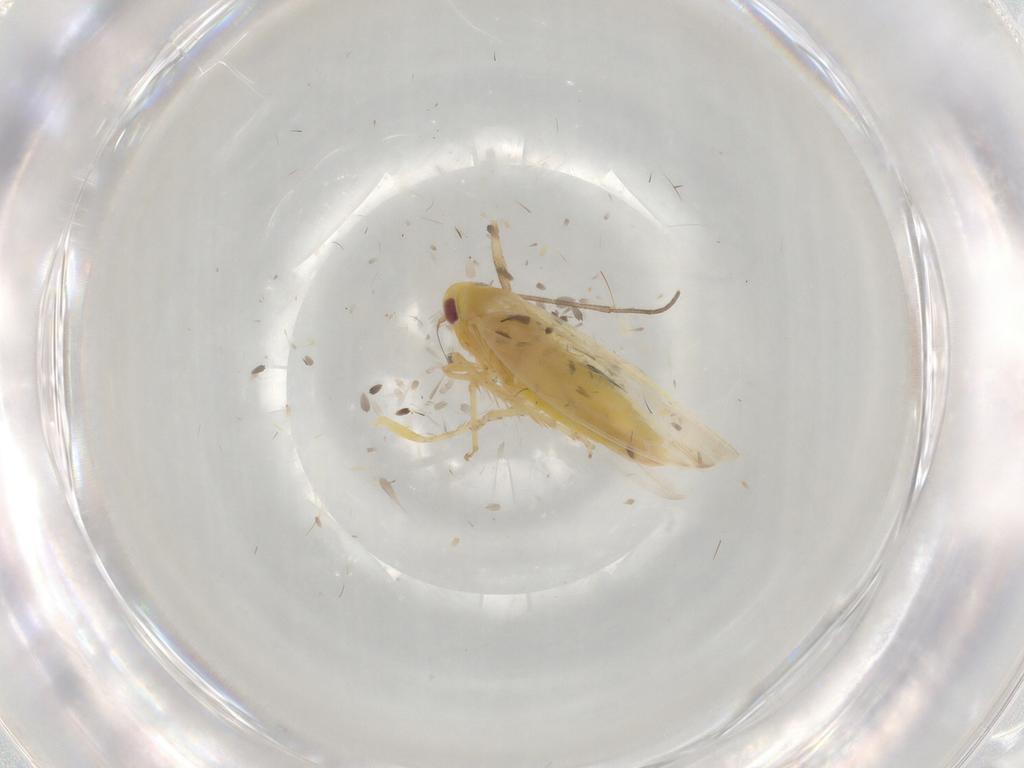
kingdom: Animalia
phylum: Arthropoda
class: Insecta
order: Hemiptera
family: Cicadellidae
